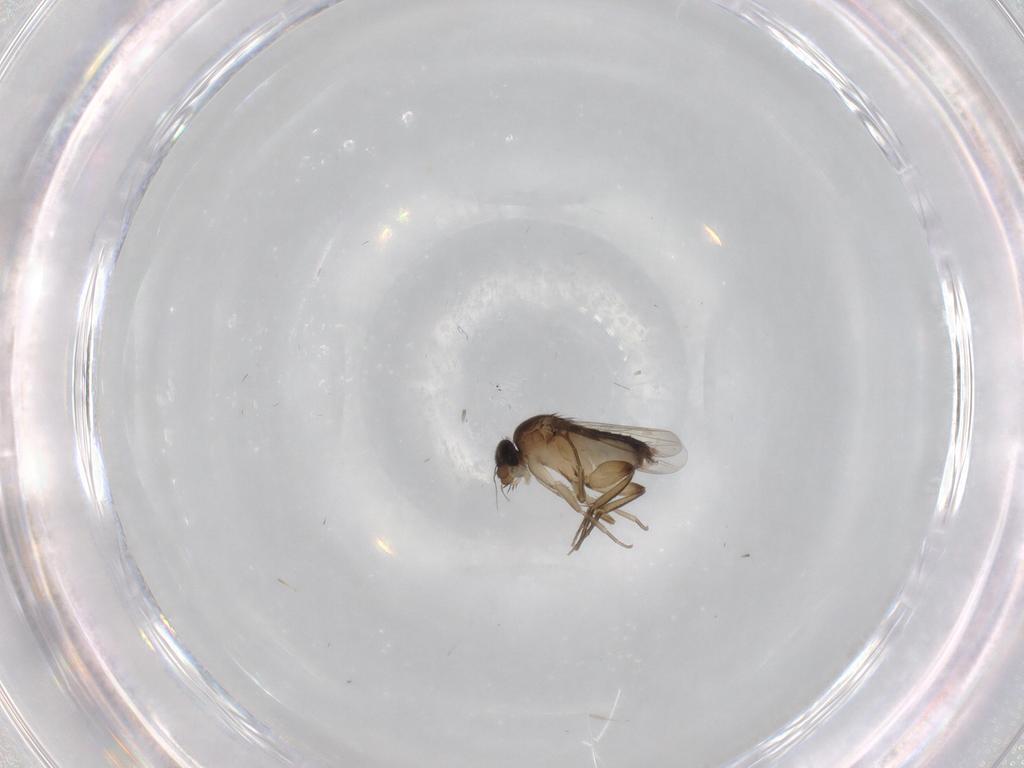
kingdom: Animalia
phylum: Arthropoda
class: Insecta
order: Diptera
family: Phoridae
